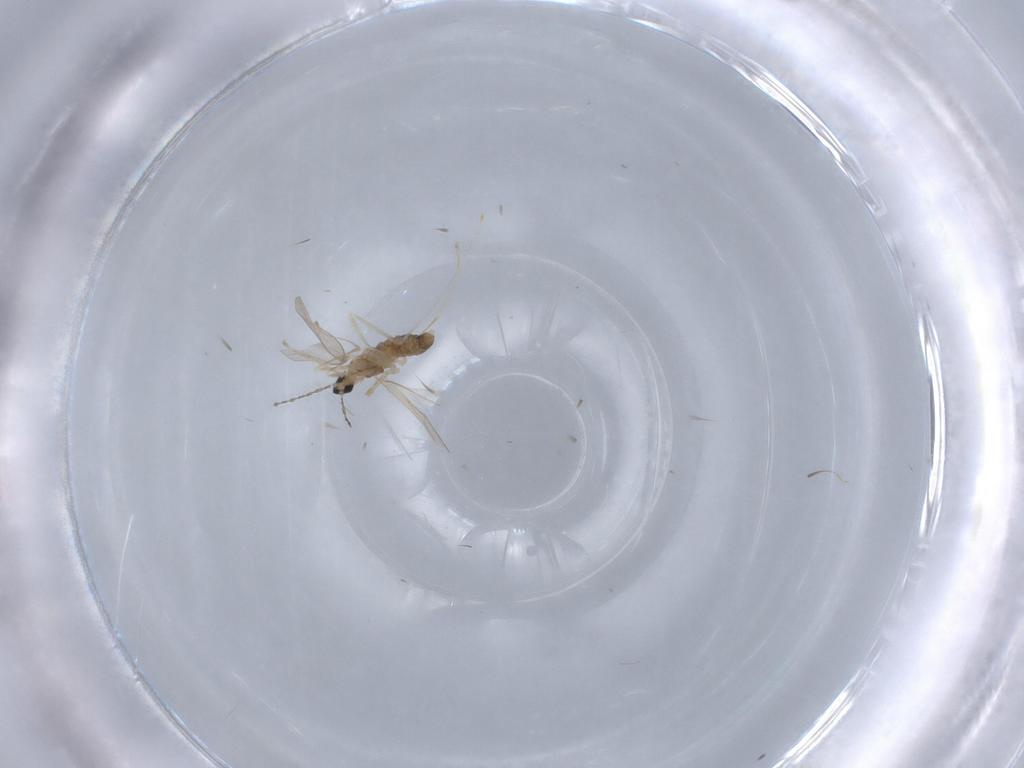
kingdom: Animalia
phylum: Arthropoda
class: Insecta
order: Diptera
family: Cecidomyiidae
